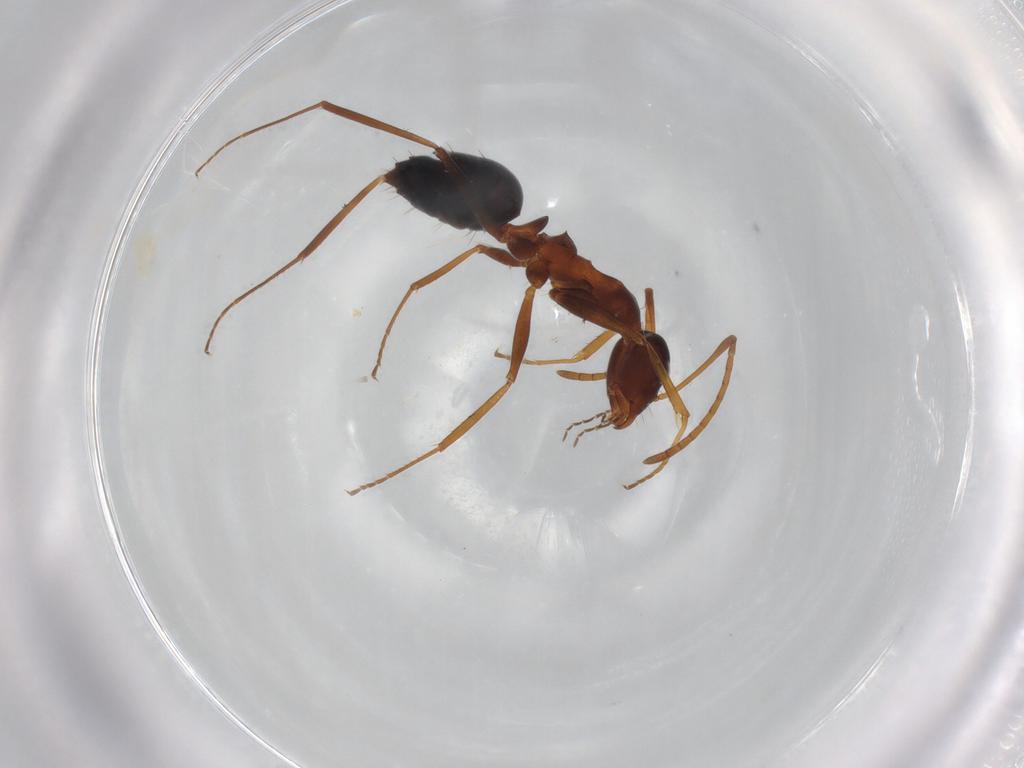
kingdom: Animalia
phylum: Arthropoda
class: Insecta
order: Hymenoptera
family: Formicidae
